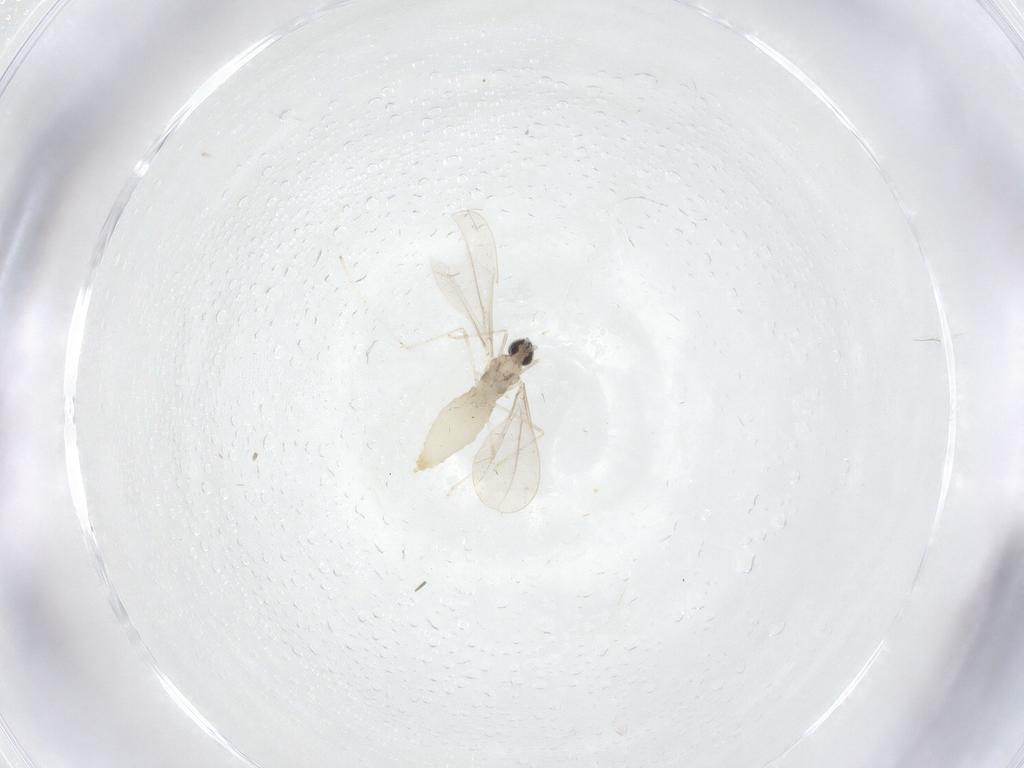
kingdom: Animalia
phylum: Arthropoda
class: Insecta
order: Diptera
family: Cecidomyiidae
